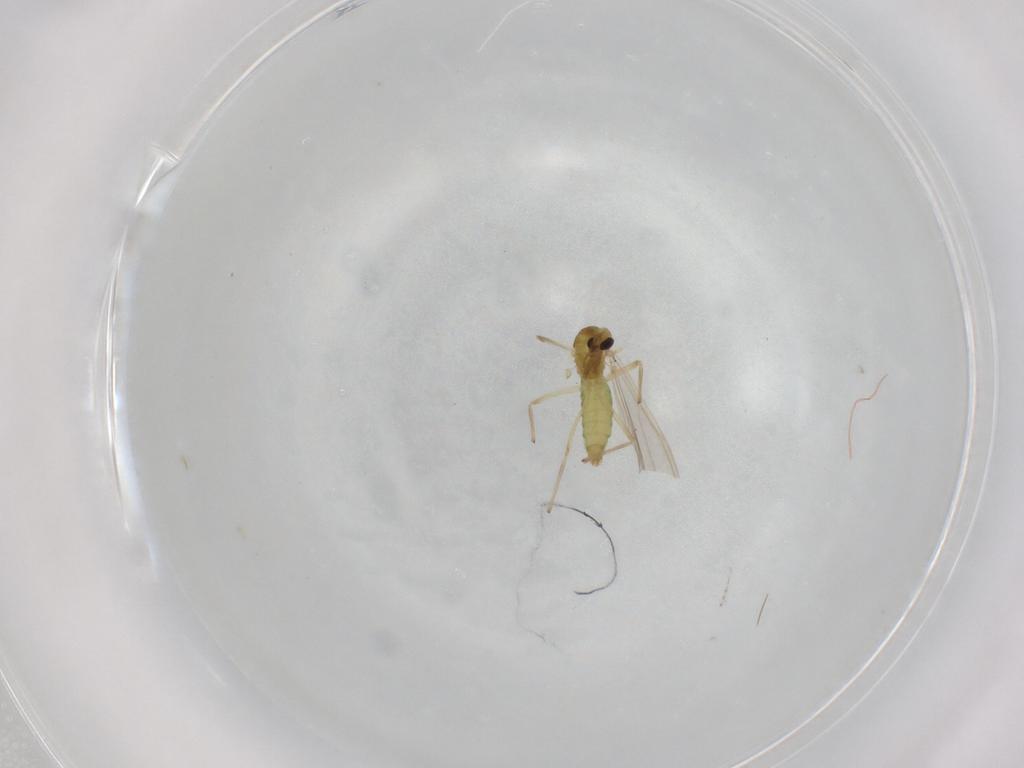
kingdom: Animalia
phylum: Arthropoda
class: Insecta
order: Diptera
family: Chironomidae
